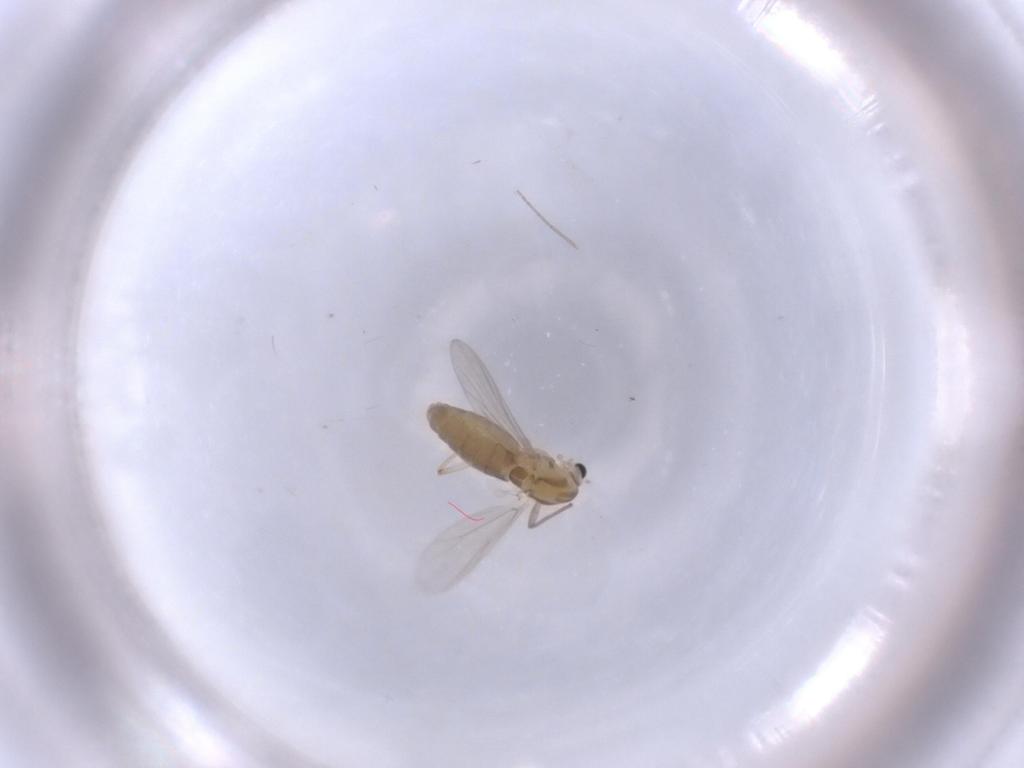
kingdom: Animalia
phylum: Arthropoda
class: Insecta
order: Diptera
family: Chironomidae
